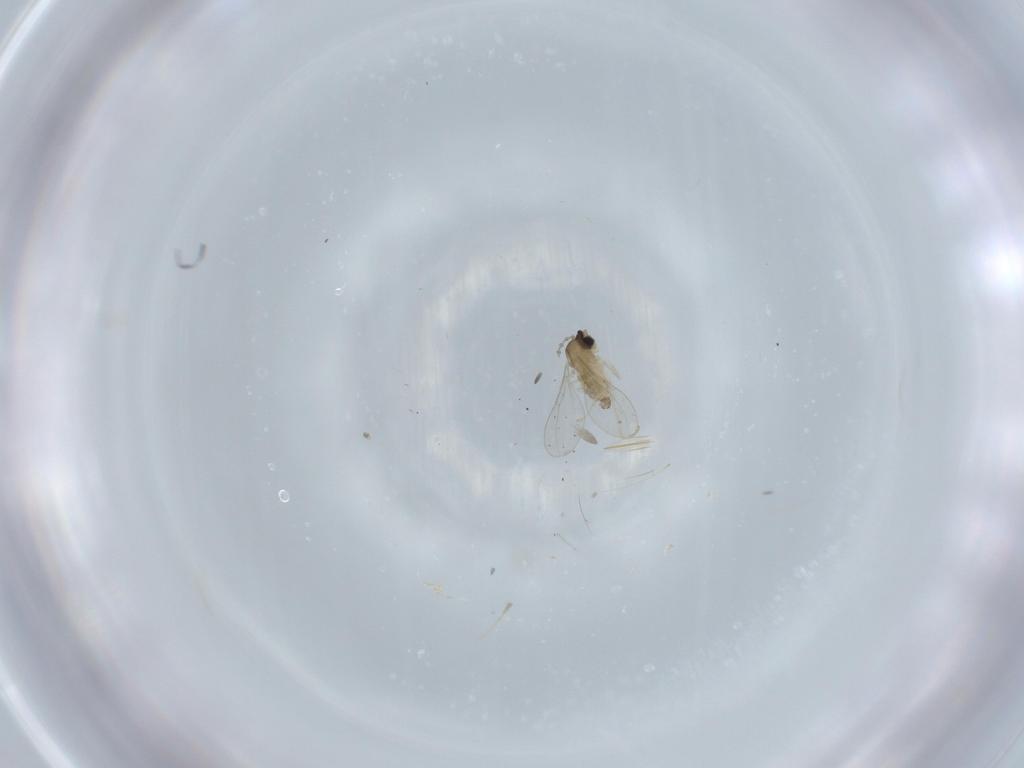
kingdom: Animalia
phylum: Arthropoda
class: Insecta
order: Diptera
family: Cecidomyiidae
